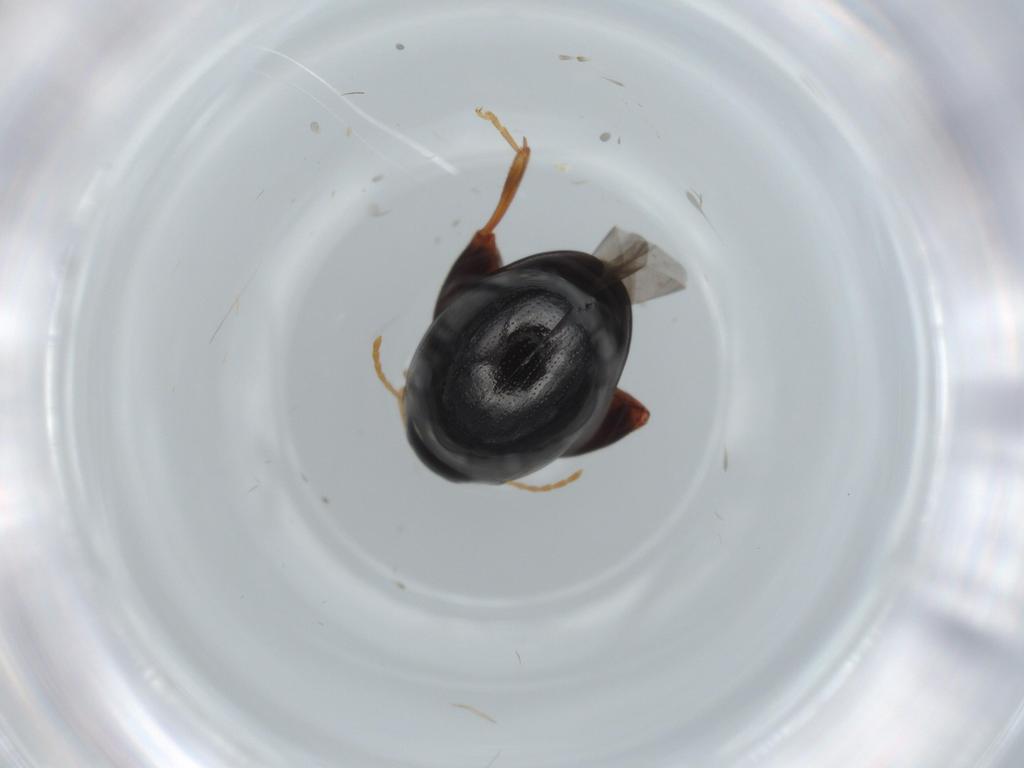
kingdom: Animalia
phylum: Arthropoda
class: Insecta
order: Coleoptera
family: Chrysomelidae
